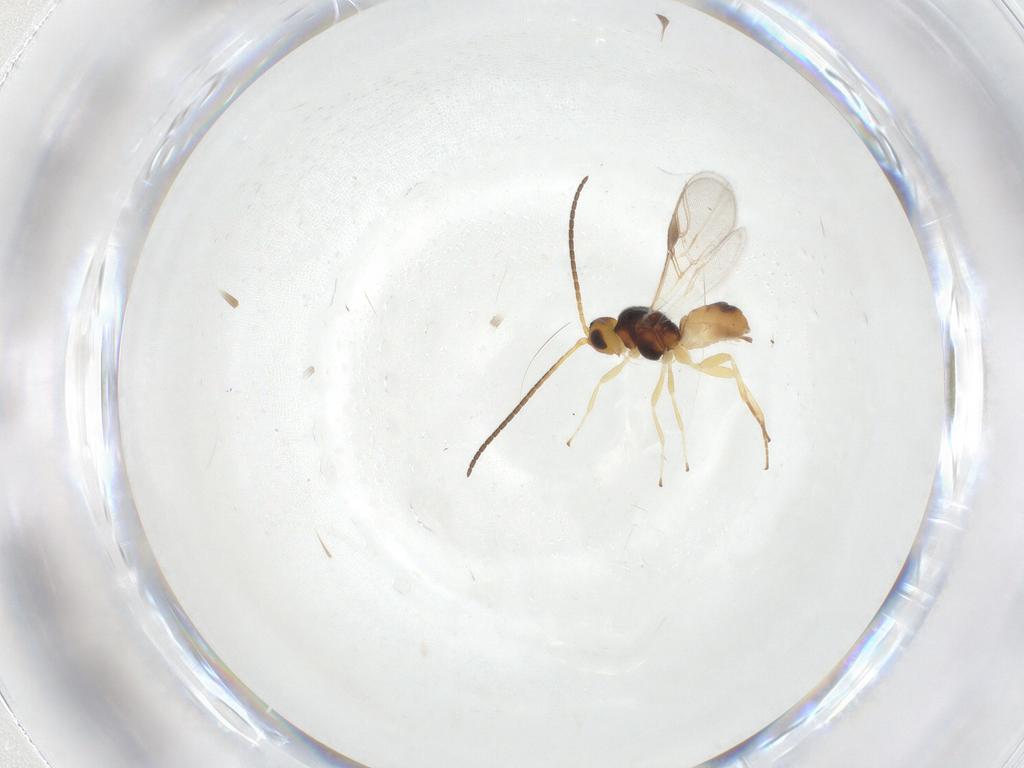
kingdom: Animalia
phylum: Arthropoda
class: Insecta
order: Hymenoptera
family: Braconidae
